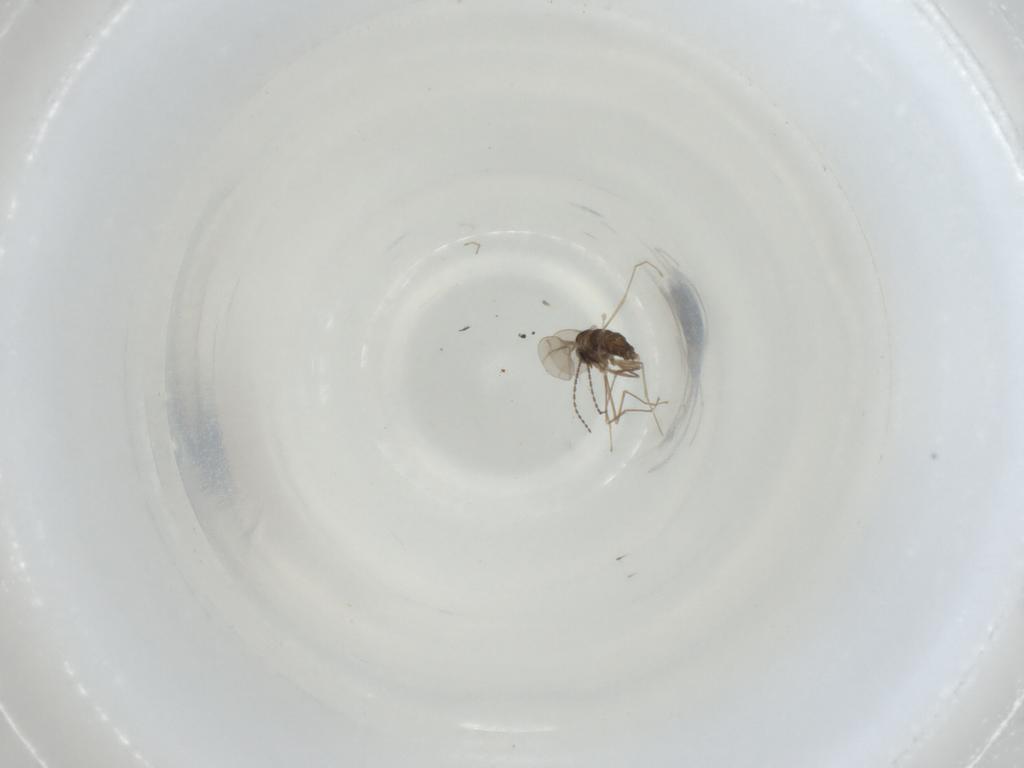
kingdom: Animalia
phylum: Arthropoda
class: Insecta
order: Diptera
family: Cecidomyiidae
